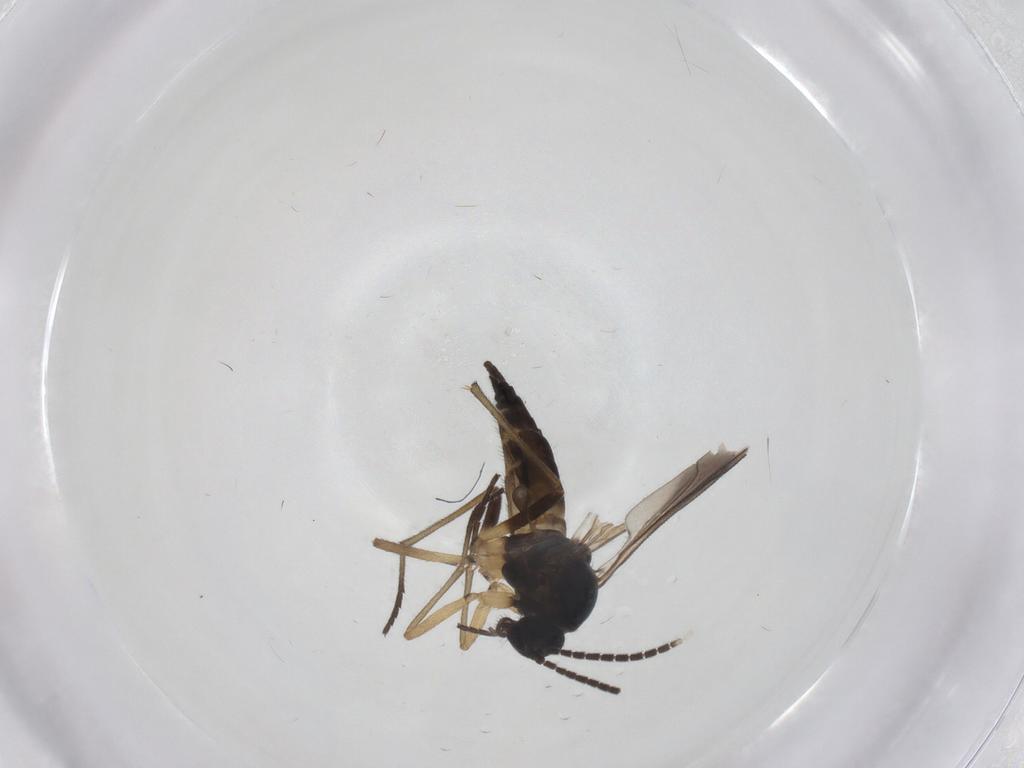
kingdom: Animalia
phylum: Arthropoda
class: Insecta
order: Diptera
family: Sciaridae
